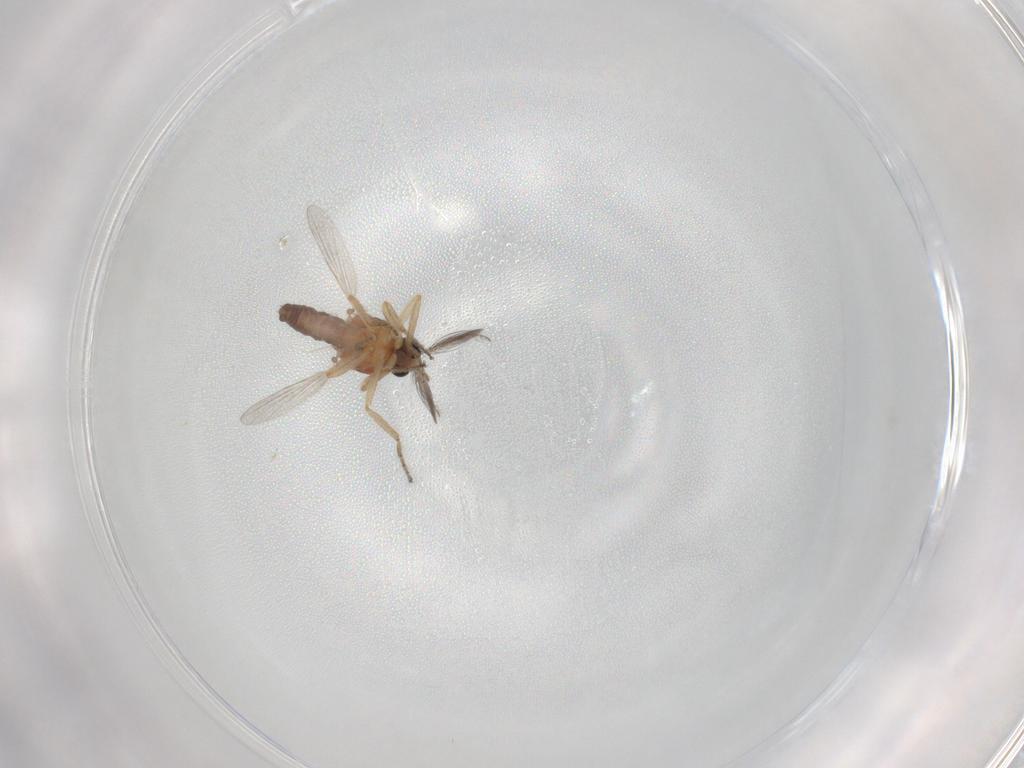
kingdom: Animalia
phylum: Arthropoda
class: Insecta
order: Diptera
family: Ceratopogonidae
